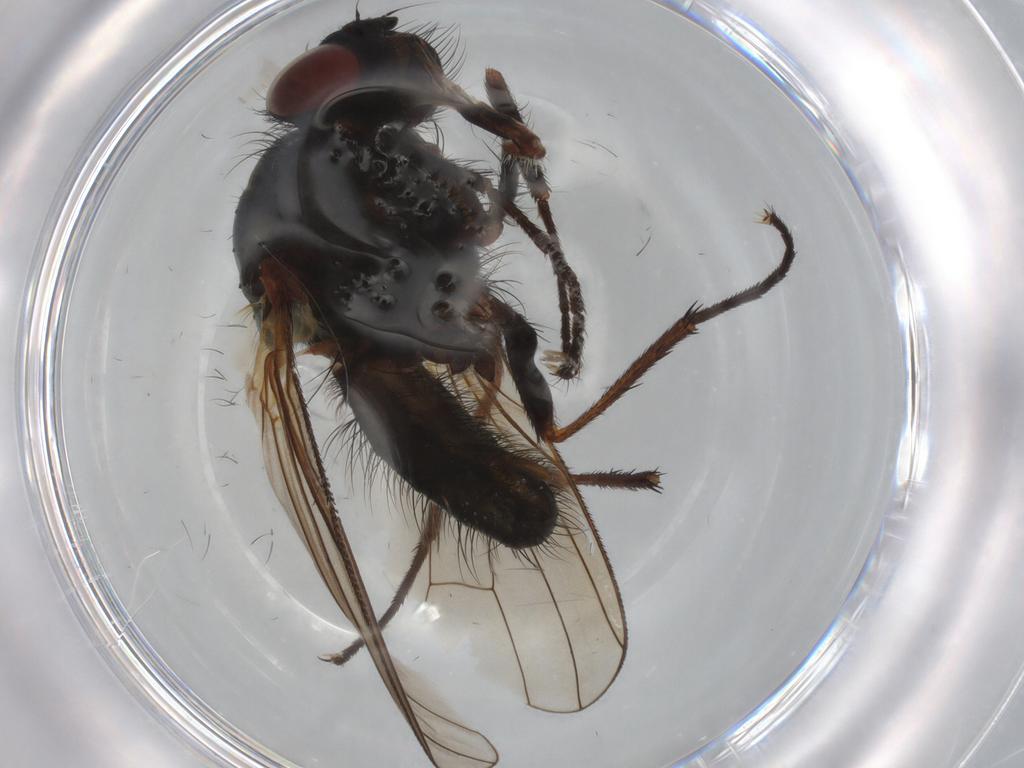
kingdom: Animalia
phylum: Arthropoda
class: Insecta
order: Diptera
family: Anthomyiidae
